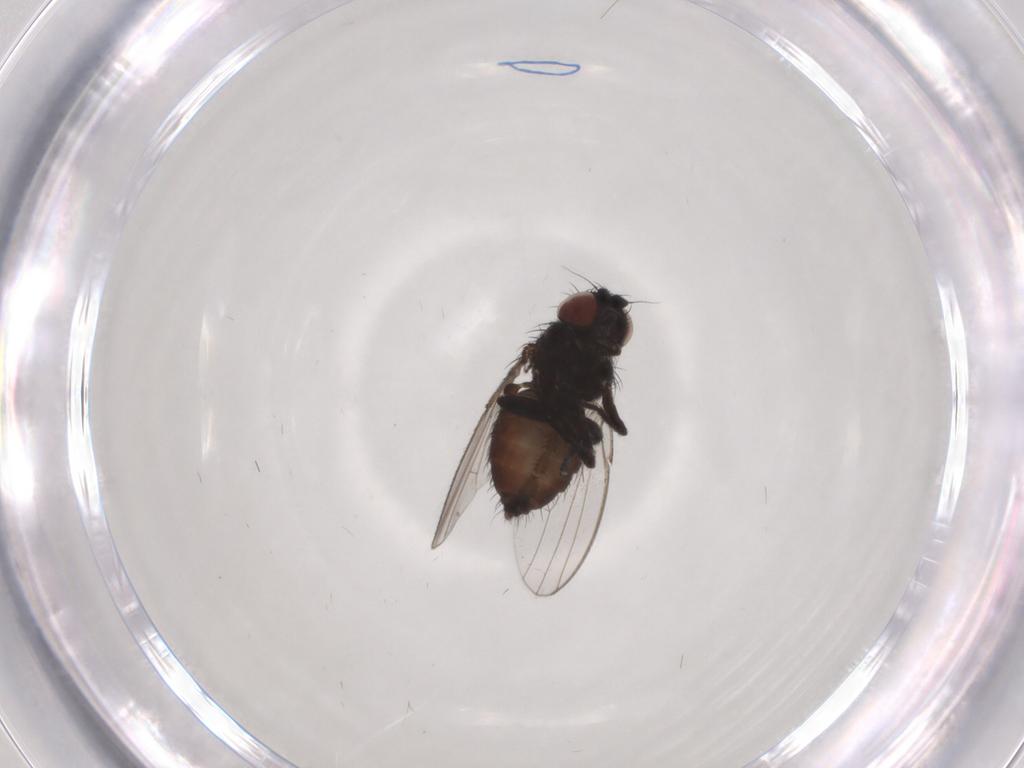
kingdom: Animalia
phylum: Arthropoda
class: Insecta
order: Diptera
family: Milichiidae
